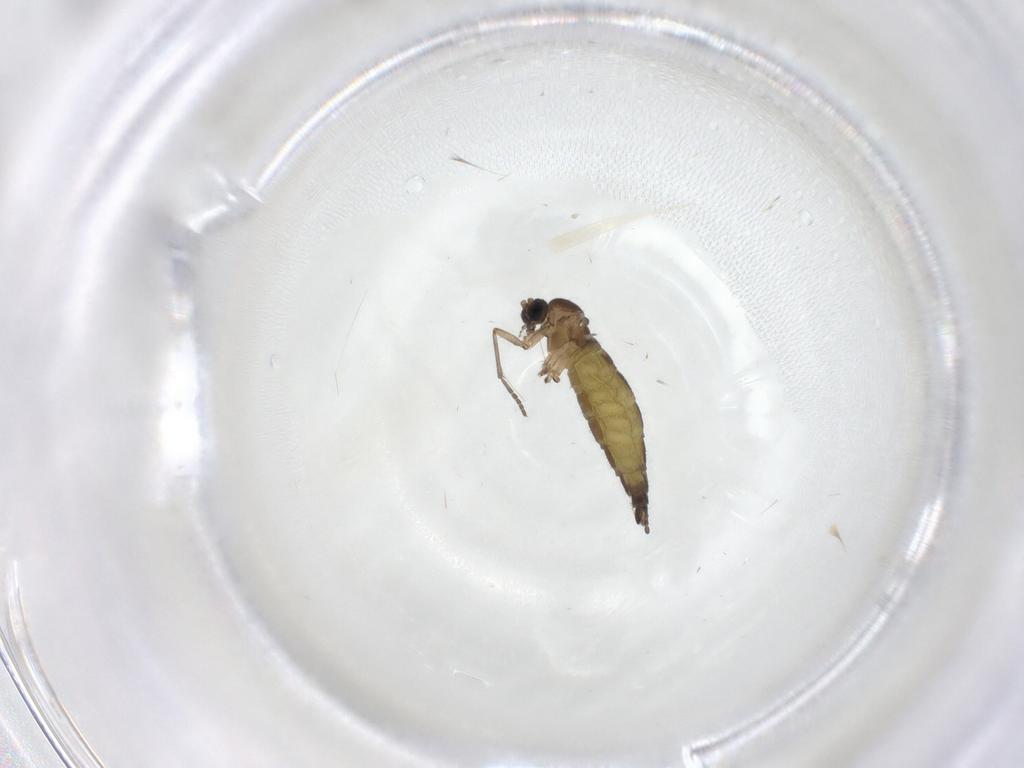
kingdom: Animalia
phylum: Arthropoda
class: Insecta
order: Diptera
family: Sciaridae
